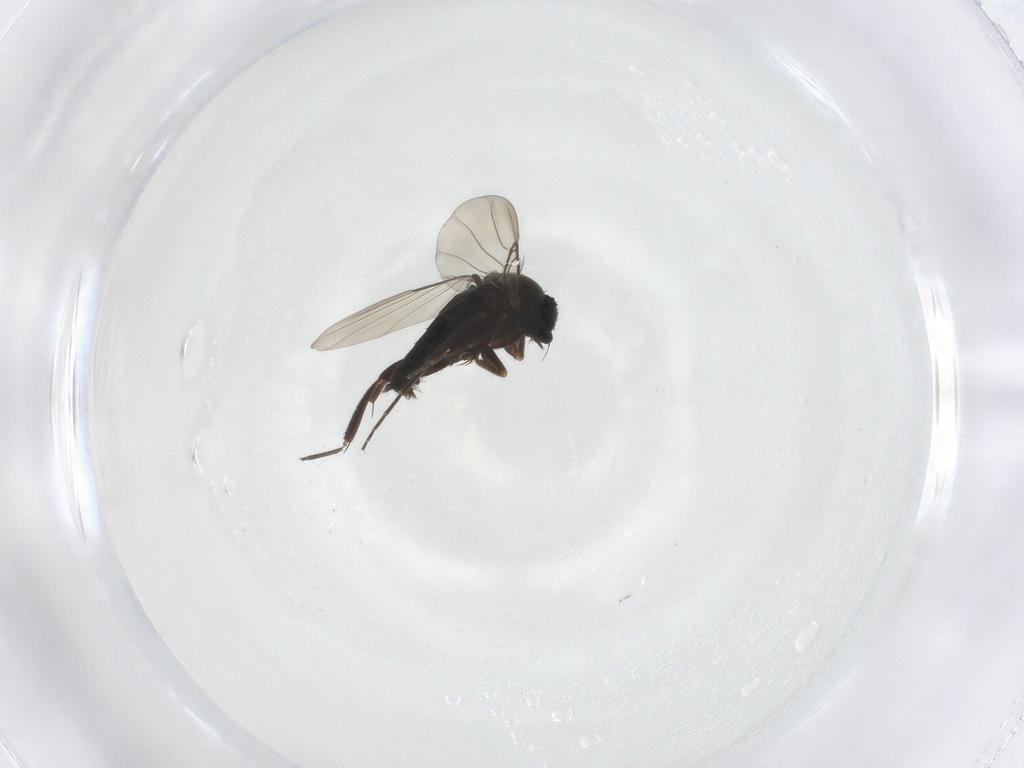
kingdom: Animalia
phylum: Arthropoda
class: Insecta
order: Diptera
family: Phoridae
